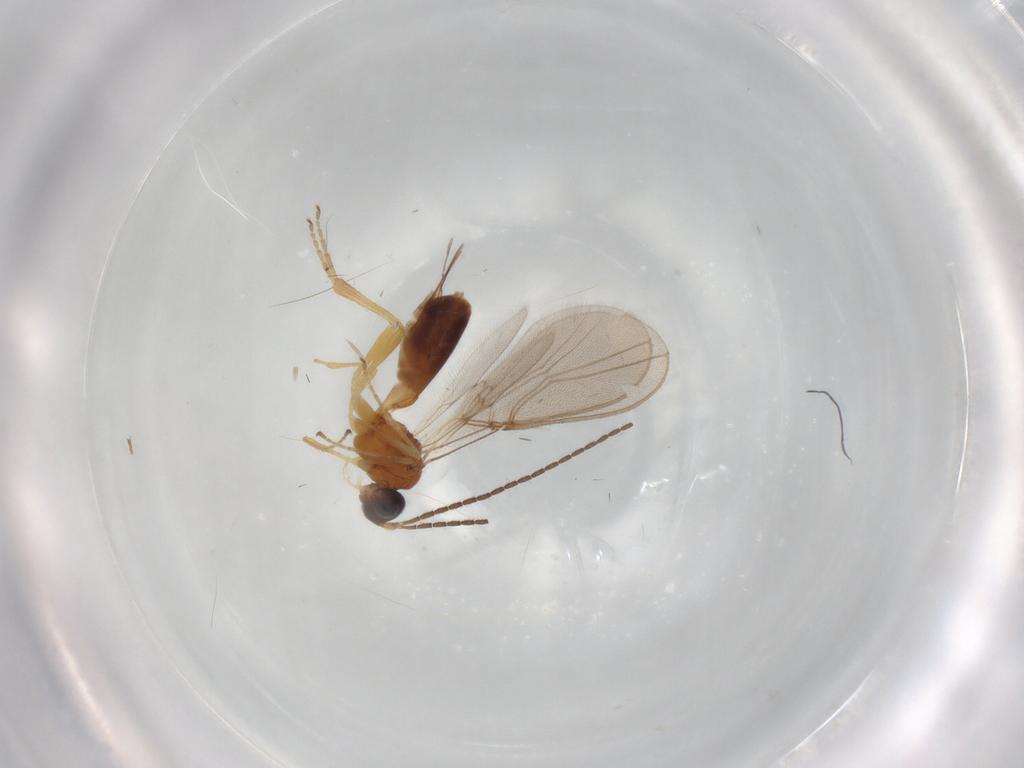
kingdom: Animalia
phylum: Arthropoda
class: Insecta
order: Hymenoptera
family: Braconidae
